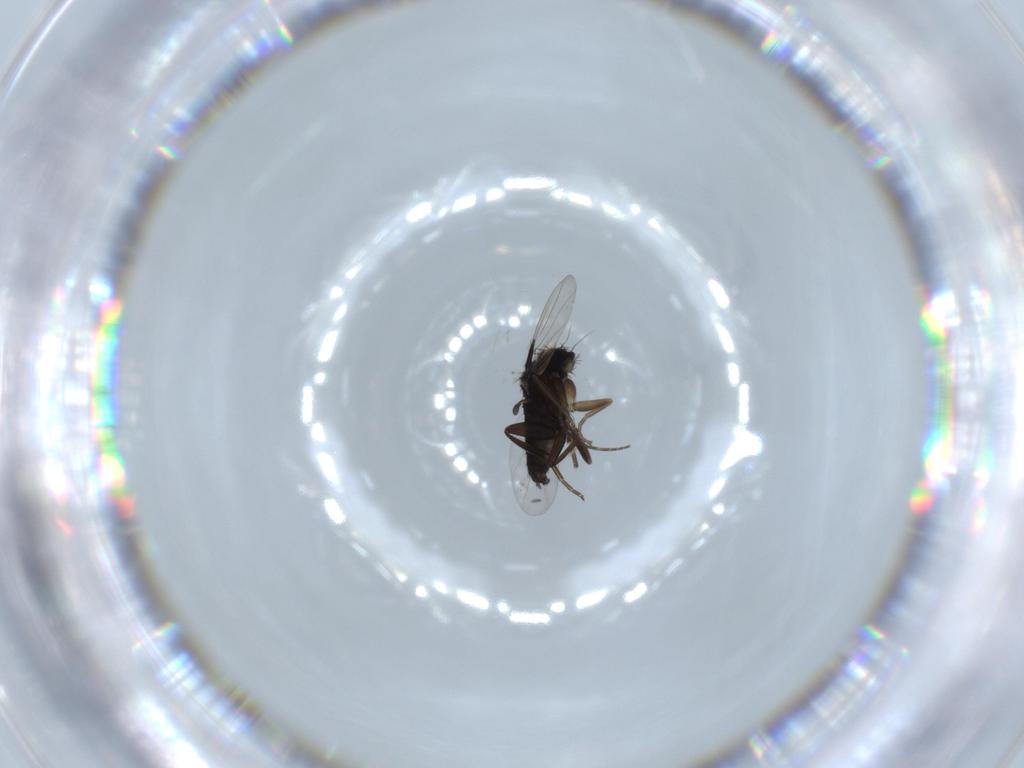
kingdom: Animalia
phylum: Arthropoda
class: Insecta
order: Diptera
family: Phoridae
